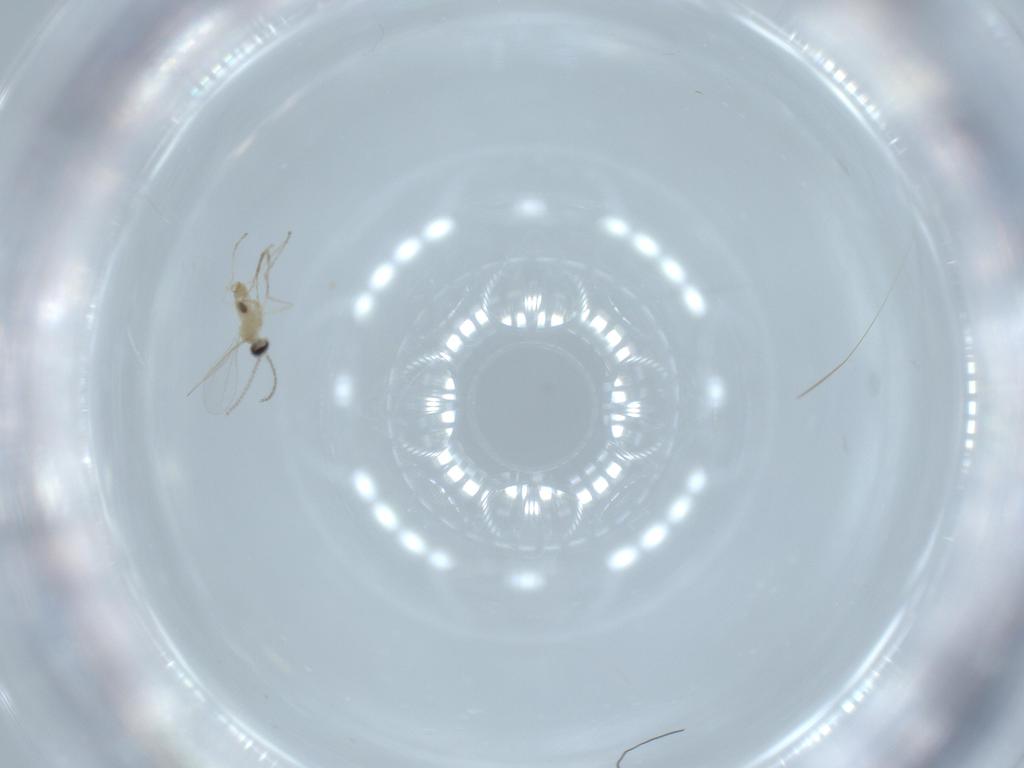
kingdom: Animalia
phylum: Arthropoda
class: Insecta
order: Diptera
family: Cecidomyiidae
